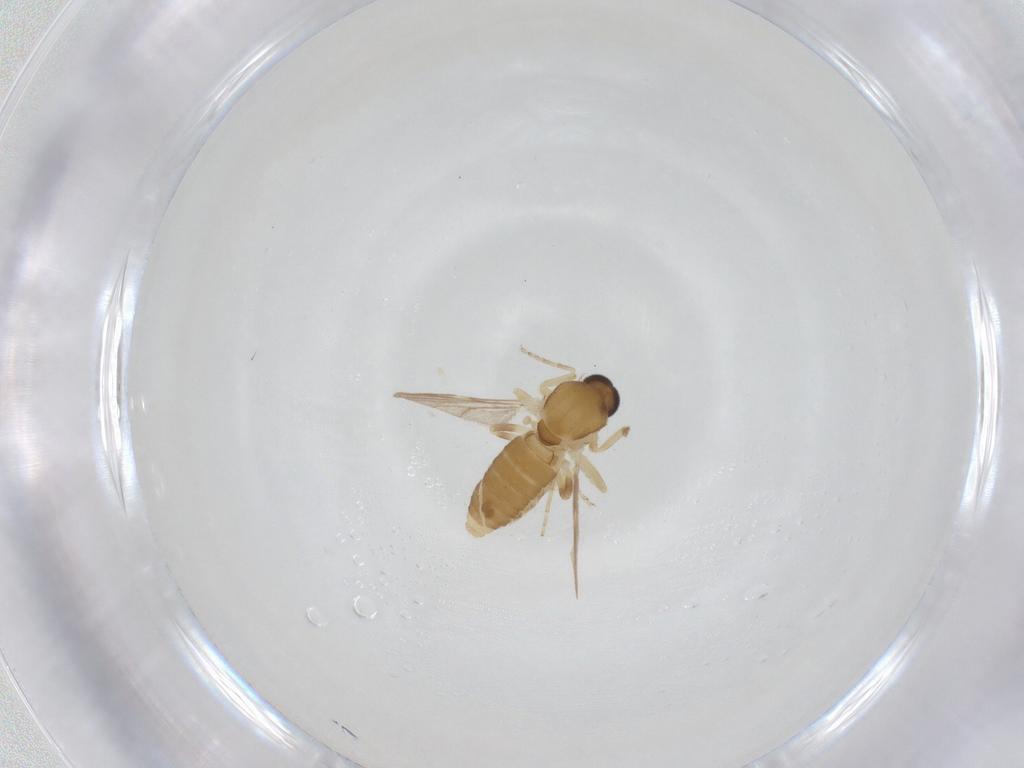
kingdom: Animalia
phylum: Arthropoda
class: Insecta
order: Diptera
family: Ceratopogonidae
